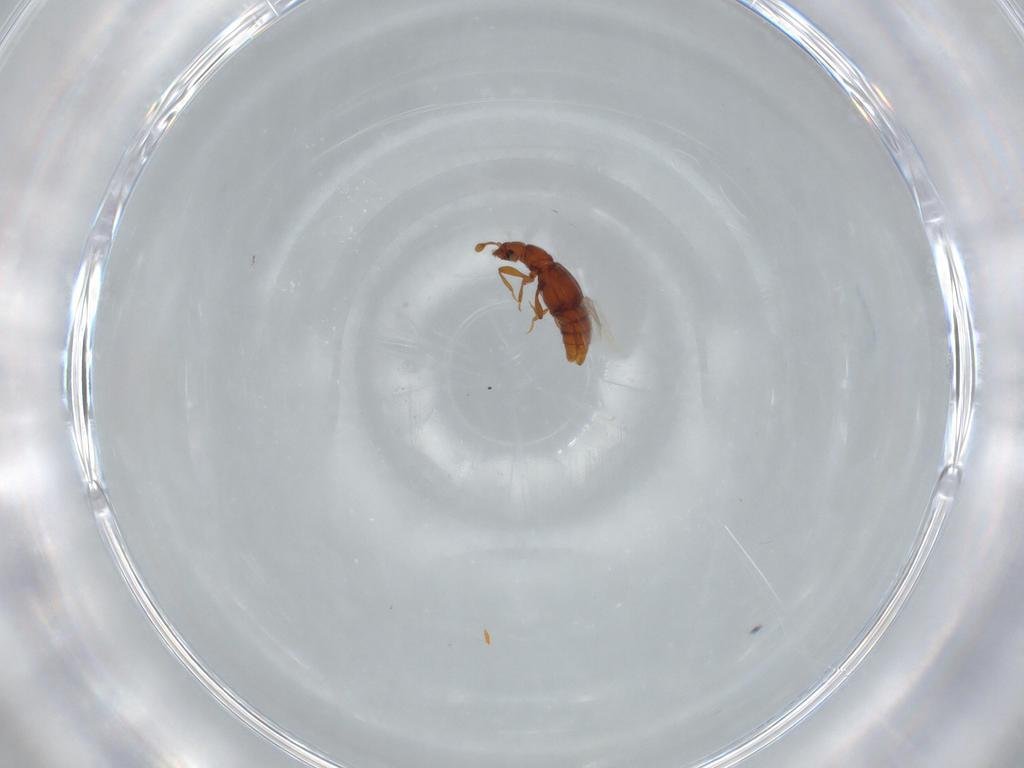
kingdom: Animalia
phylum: Arthropoda
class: Insecta
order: Coleoptera
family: Staphylinidae
